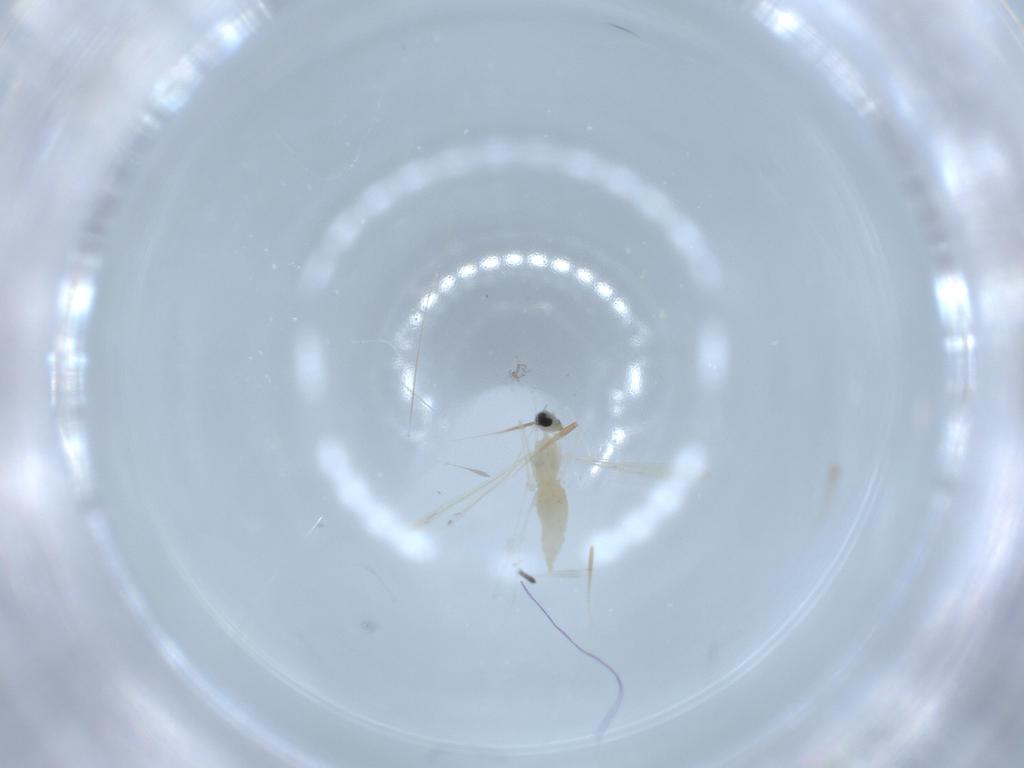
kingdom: Animalia
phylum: Arthropoda
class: Insecta
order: Diptera
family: Cecidomyiidae
